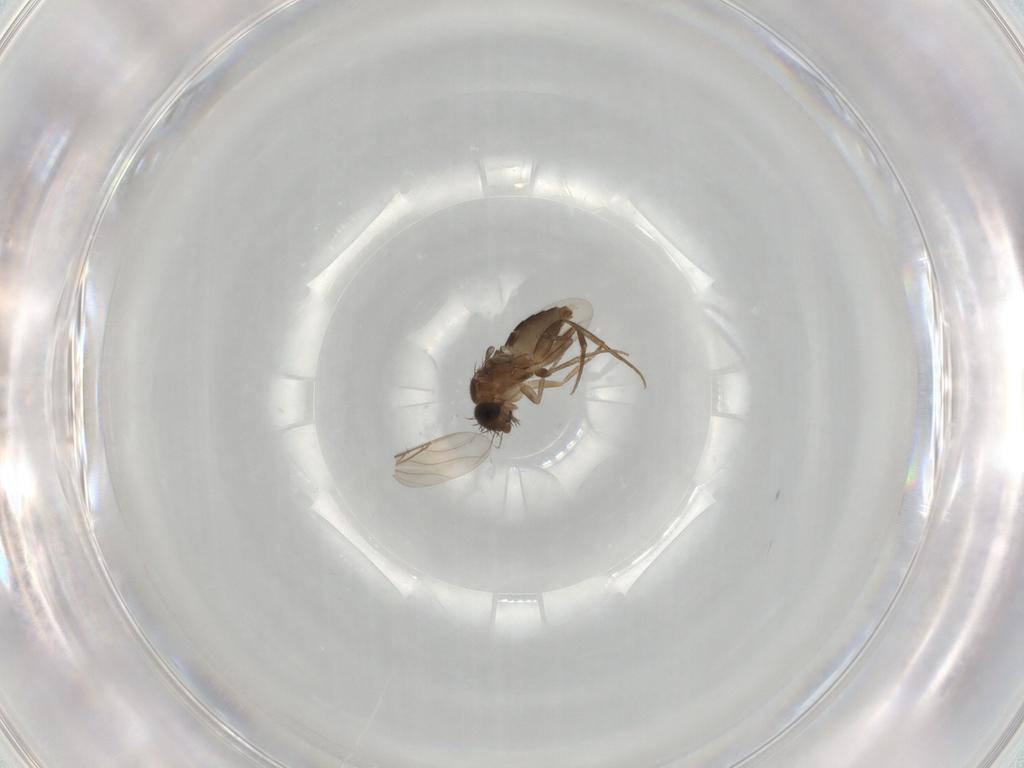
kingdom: Animalia
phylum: Arthropoda
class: Insecta
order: Diptera
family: Phoridae
